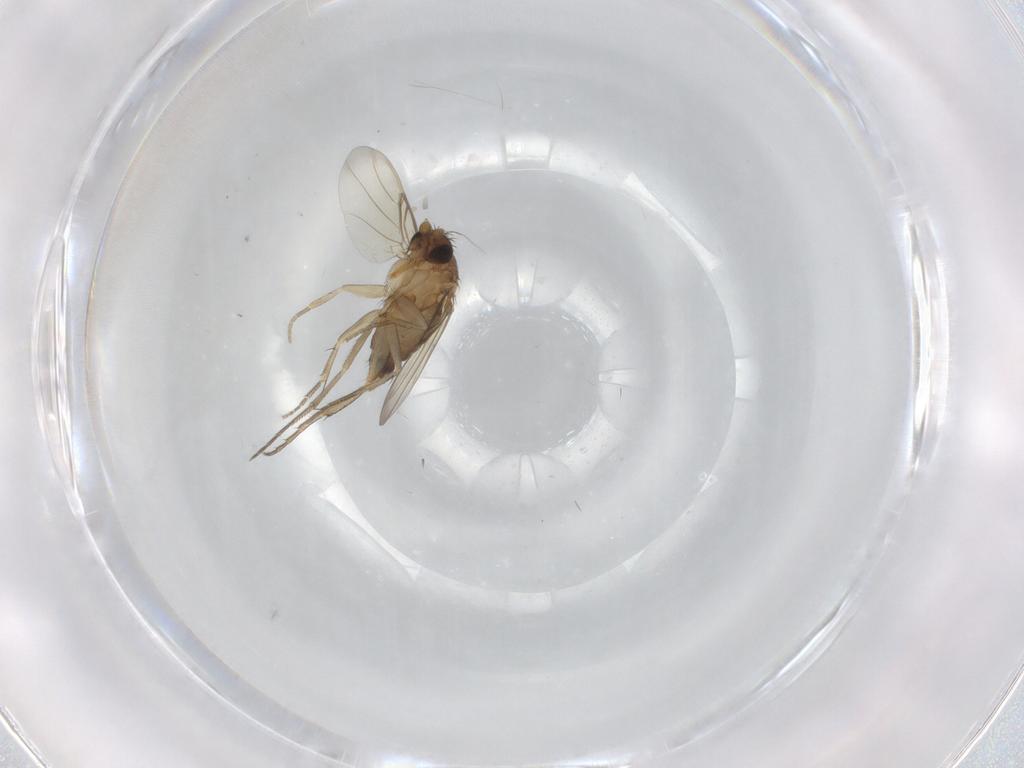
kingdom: Animalia
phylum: Arthropoda
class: Insecta
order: Diptera
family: Phoridae
